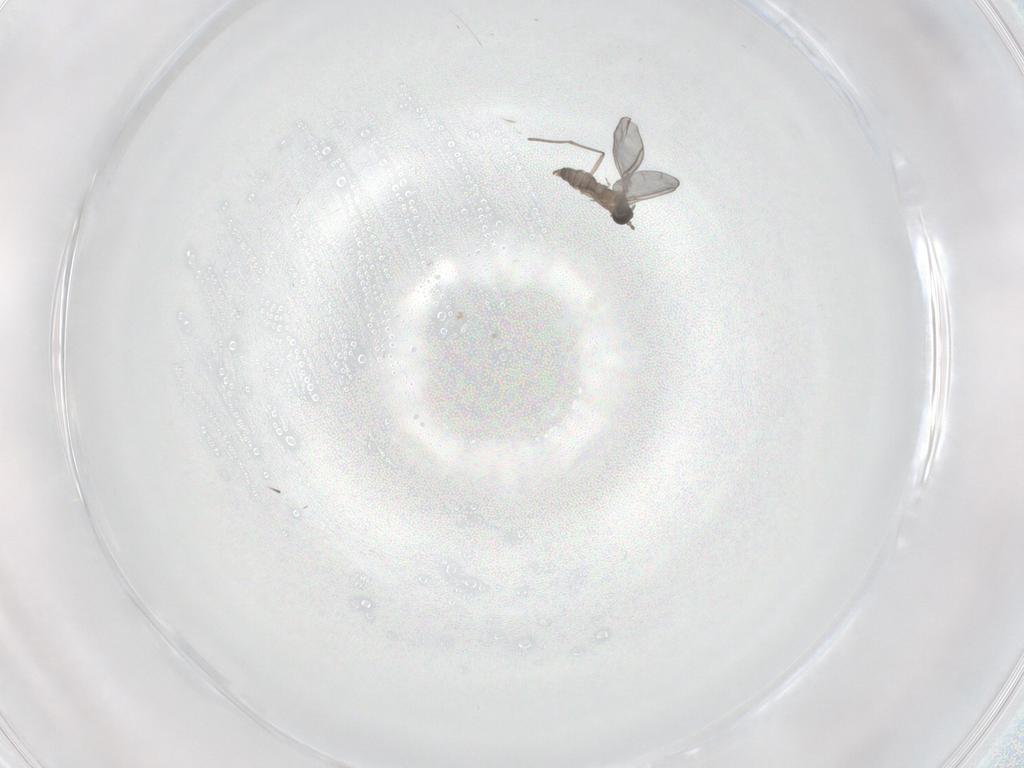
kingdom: Animalia
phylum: Arthropoda
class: Insecta
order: Diptera
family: Sciaridae
